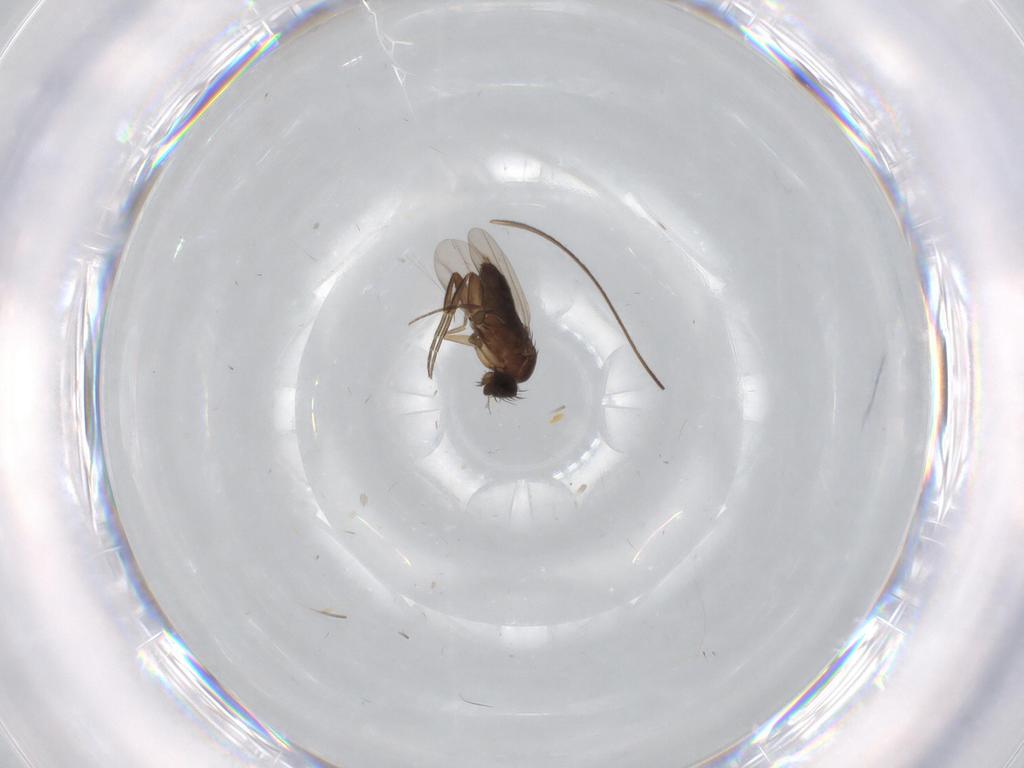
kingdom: Animalia
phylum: Arthropoda
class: Insecta
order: Diptera
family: Phoridae
